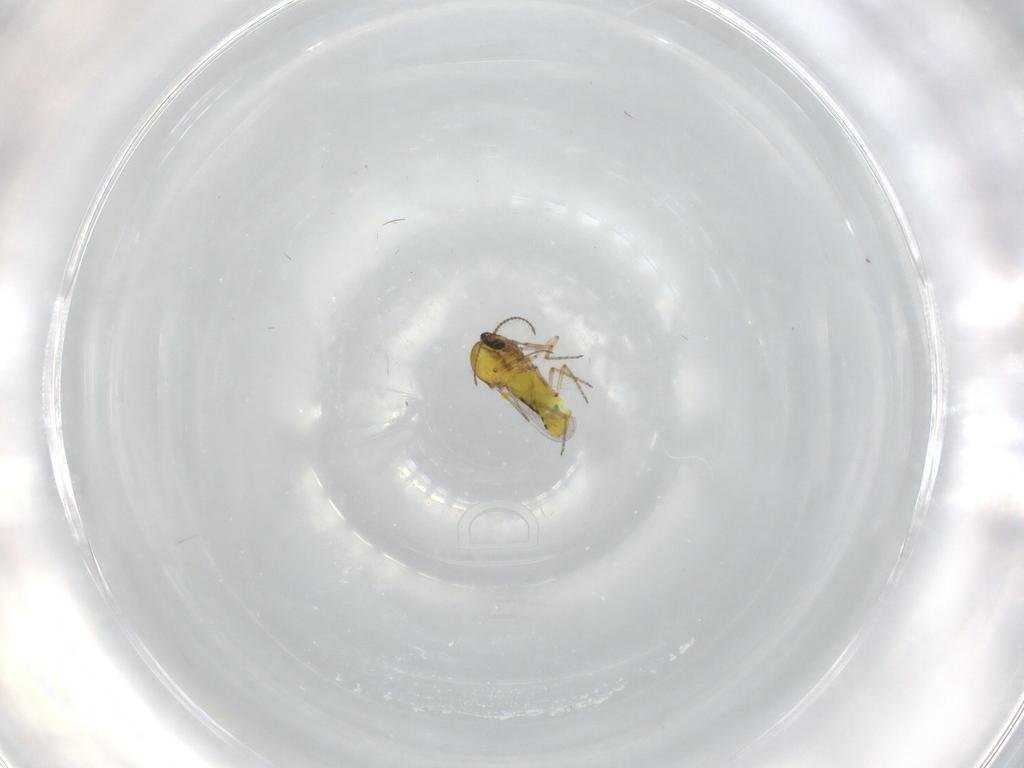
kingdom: Animalia
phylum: Arthropoda
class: Insecta
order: Diptera
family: Ceratopogonidae
